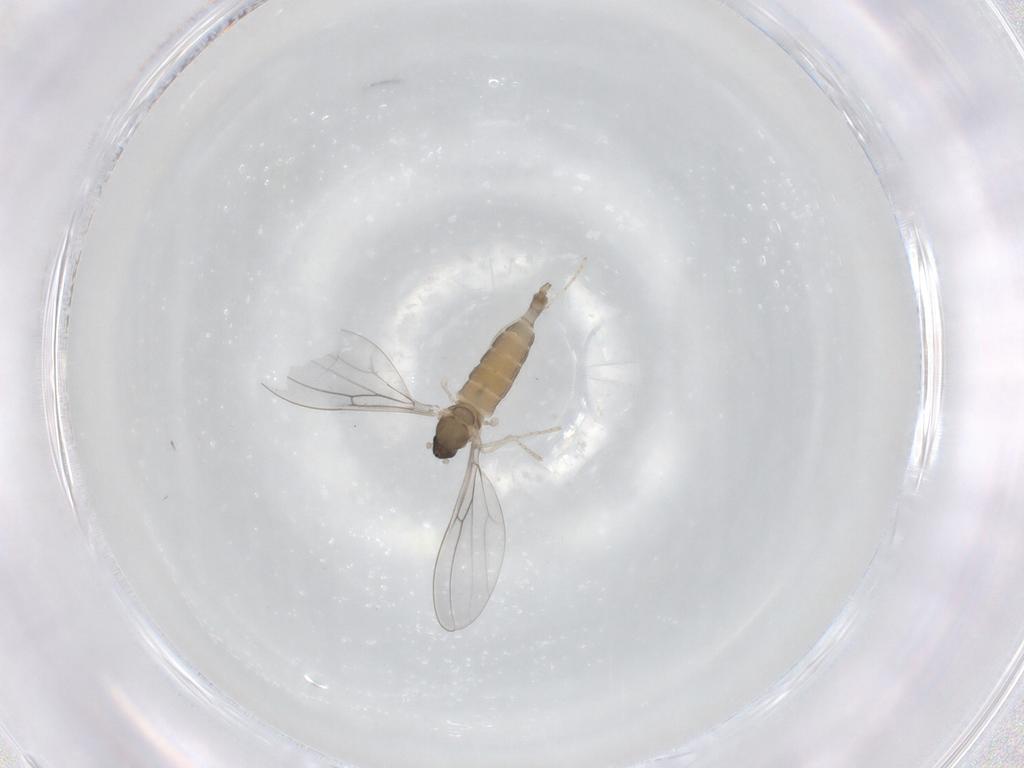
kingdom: Animalia
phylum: Arthropoda
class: Insecta
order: Diptera
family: Cecidomyiidae
